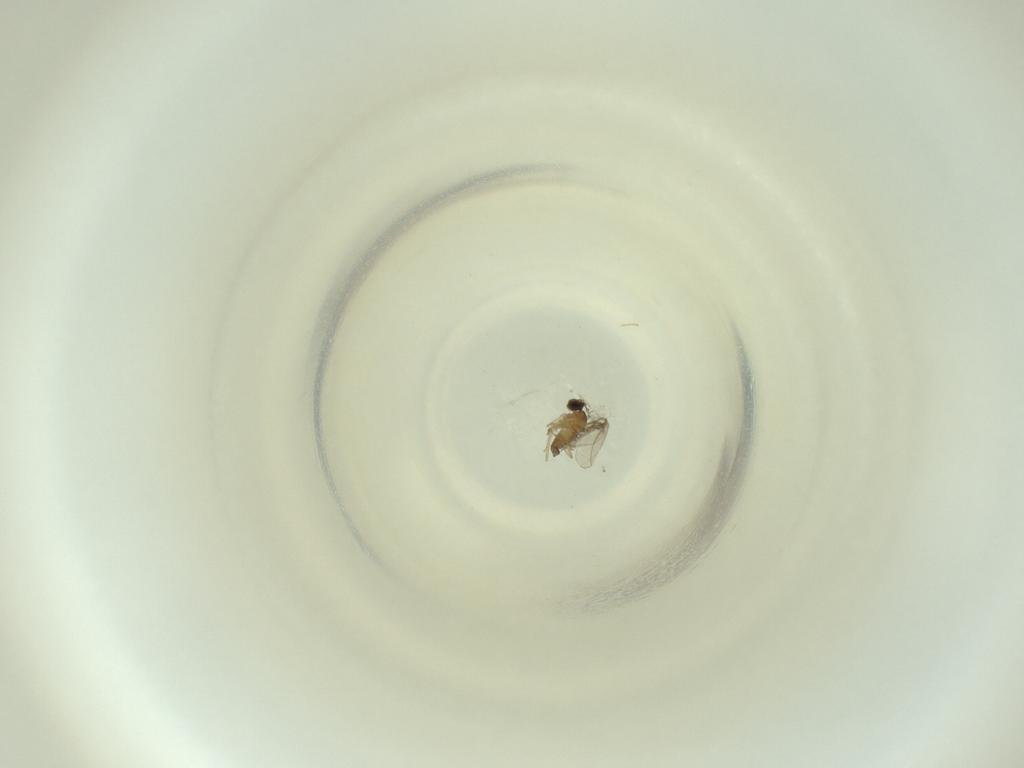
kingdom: Animalia
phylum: Arthropoda
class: Insecta
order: Diptera
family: Cecidomyiidae
